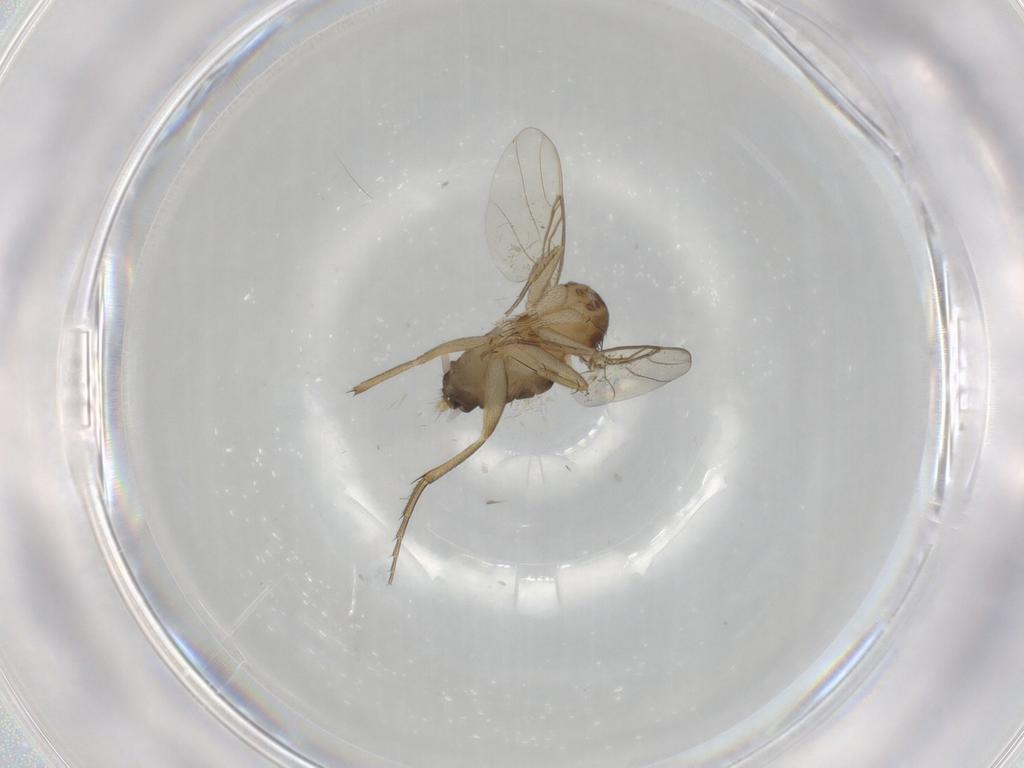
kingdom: Animalia
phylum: Arthropoda
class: Insecta
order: Diptera
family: Phoridae
